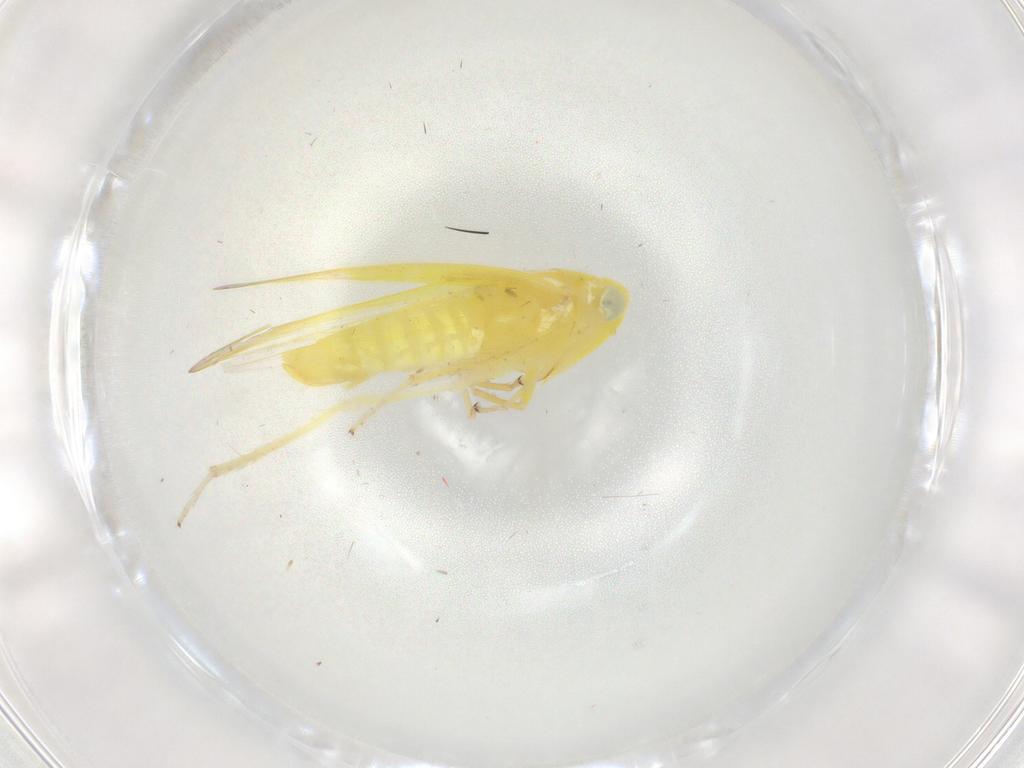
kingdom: Animalia
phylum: Arthropoda
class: Insecta
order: Hemiptera
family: Cicadellidae
